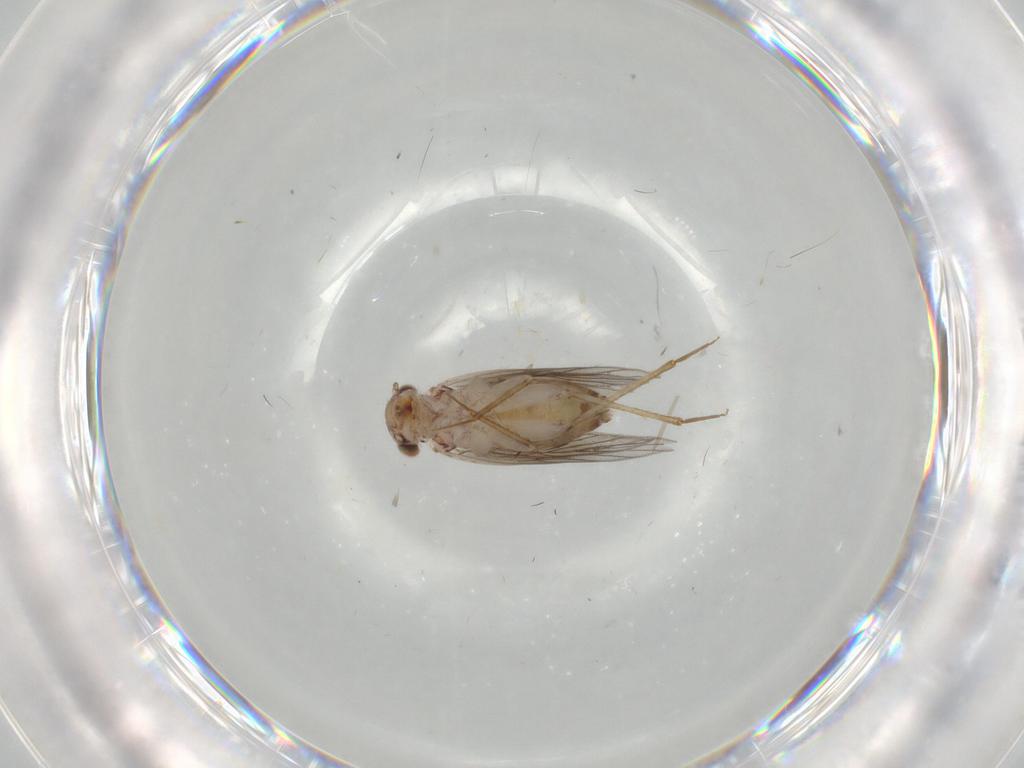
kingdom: Animalia
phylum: Arthropoda
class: Insecta
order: Psocodea
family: Lepidopsocidae
